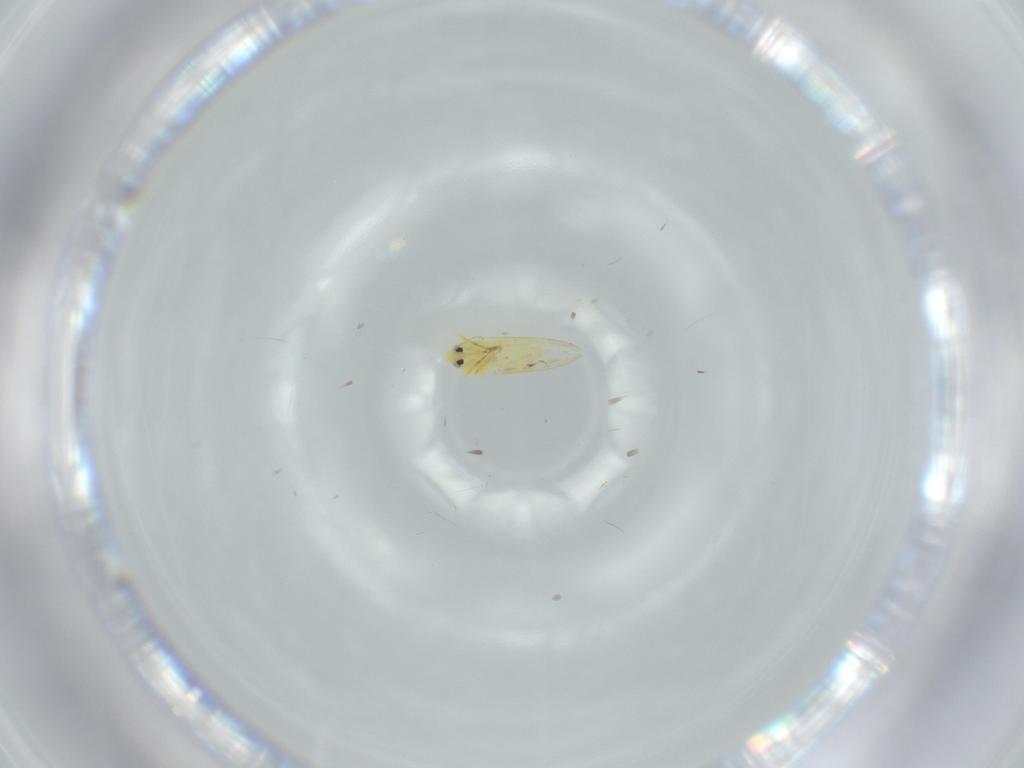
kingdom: Animalia
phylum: Arthropoda
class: Insecta
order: Hemiptera
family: Aleyrodidae
